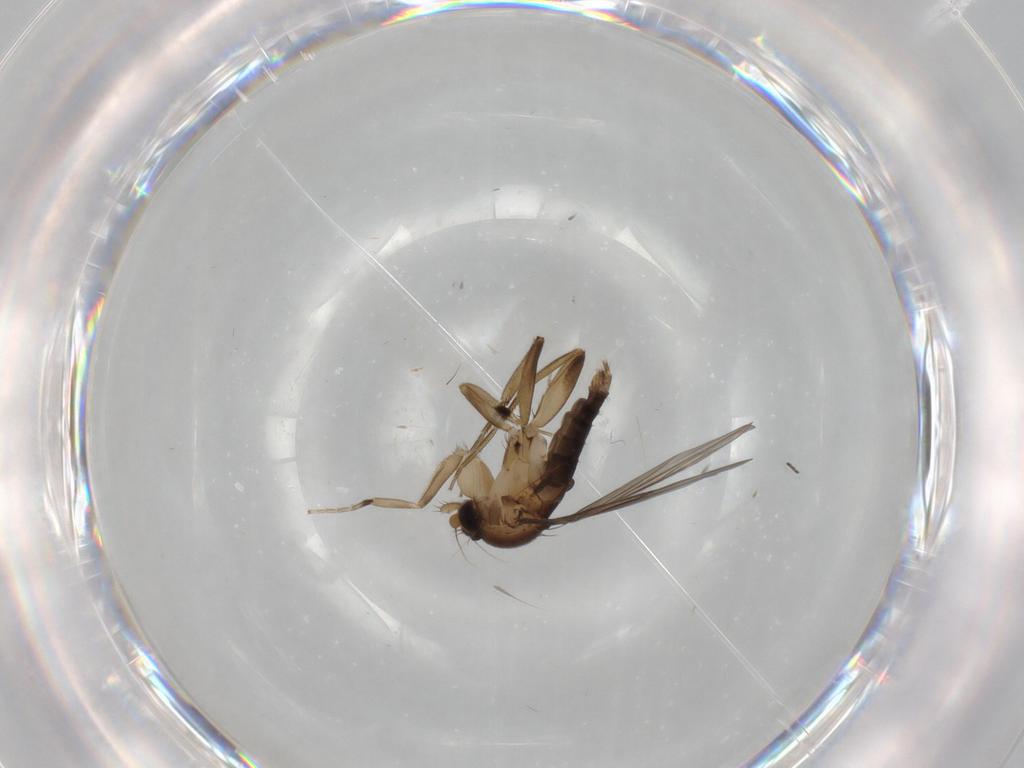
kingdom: Animalia
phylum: Arthropoda
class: Insecta
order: Diptera
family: Phoridae
